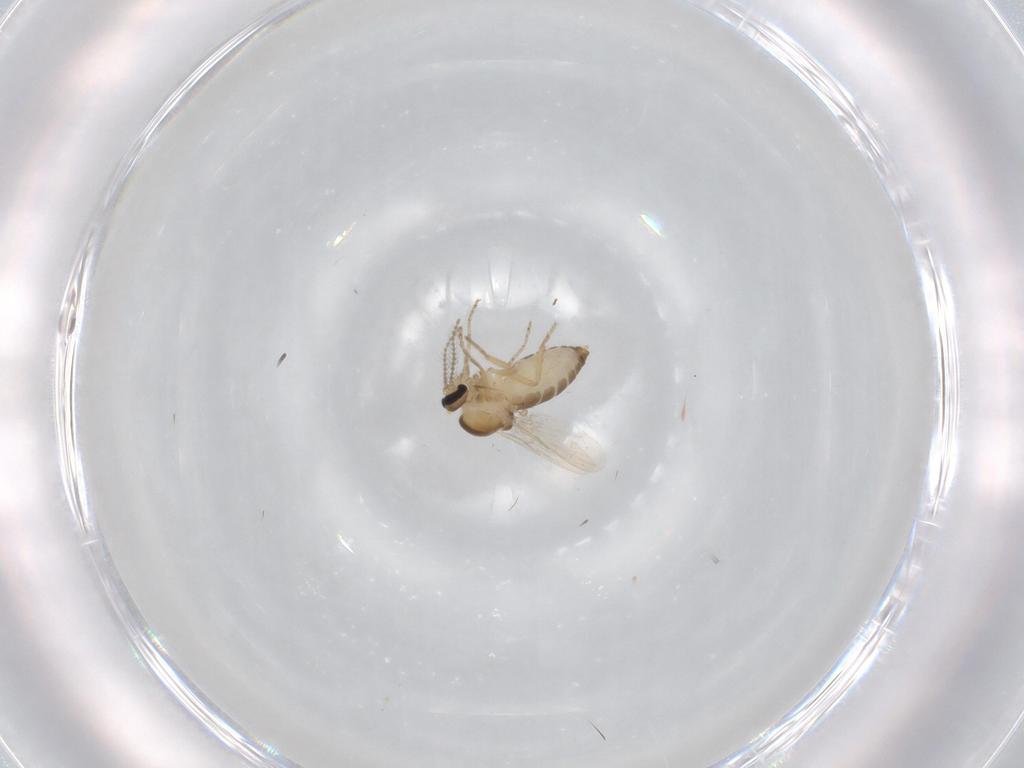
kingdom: Animalia
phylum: Arthropoda
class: Insecta
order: Diptera
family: Ceratopogonidae
